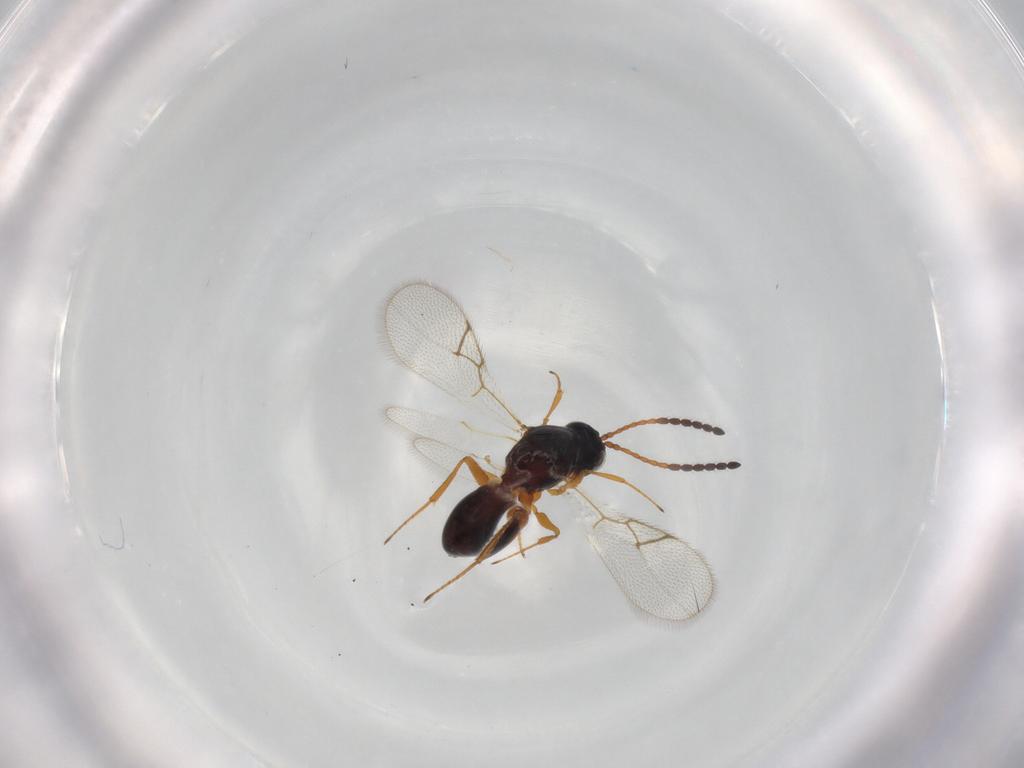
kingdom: Animalia
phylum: Arthropoda
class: Insecta
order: Hymenoptera
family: Figitidae
